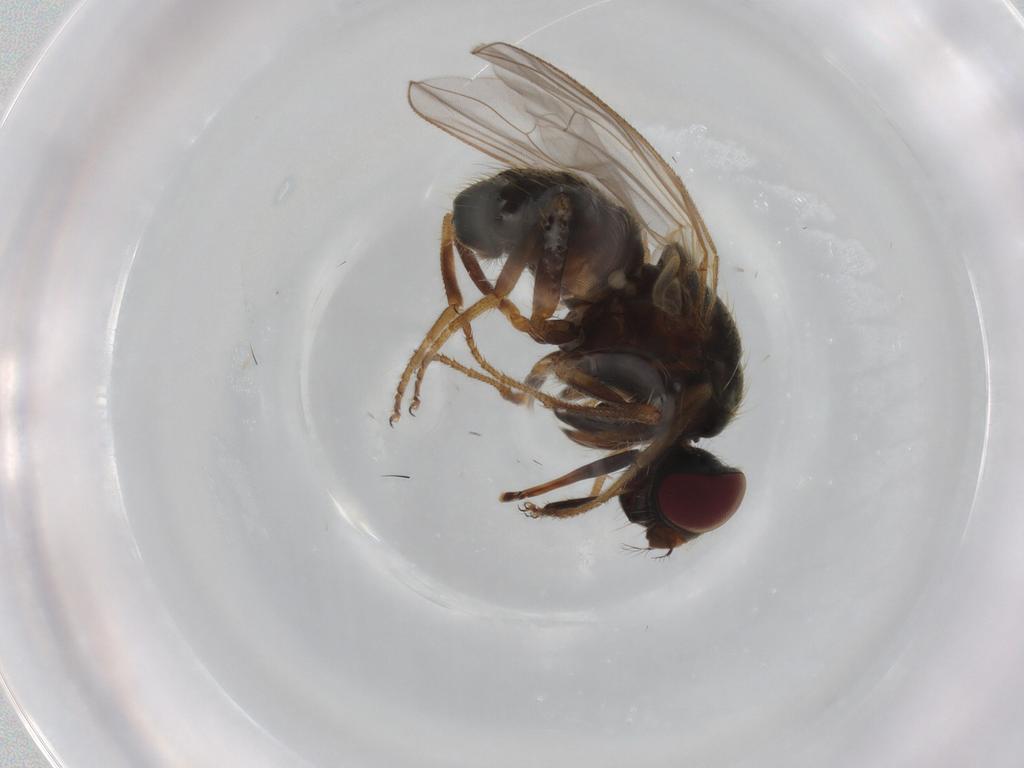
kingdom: Animalia
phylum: Arthropoda
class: Insecta
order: Diptera
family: Muscidae
